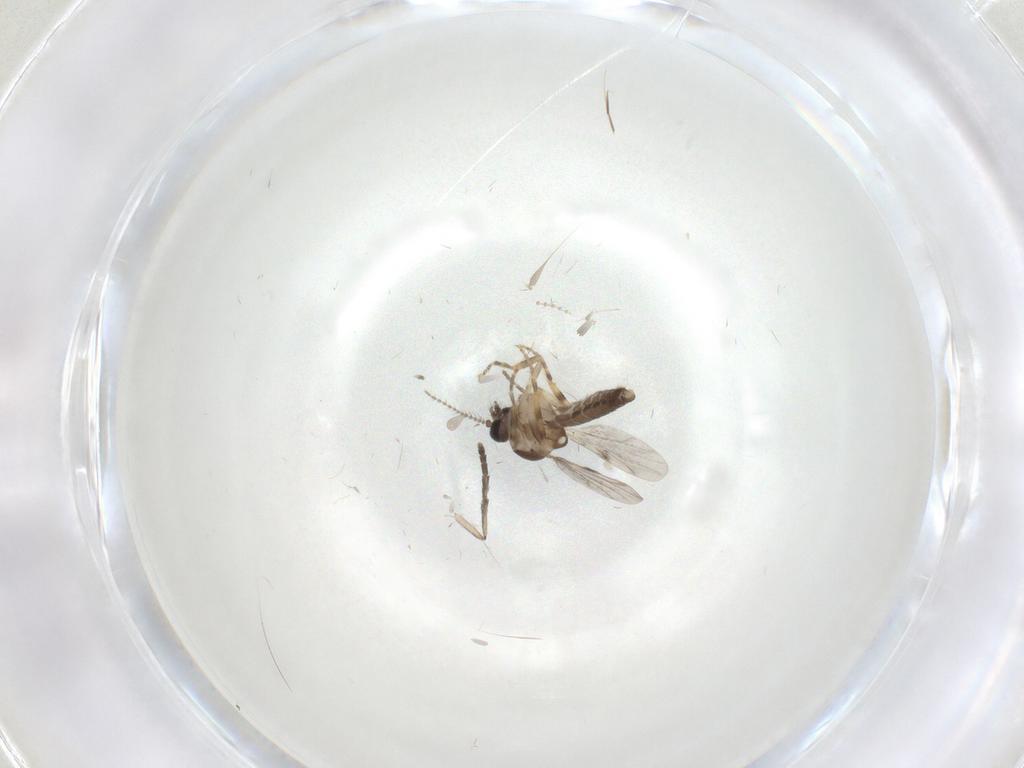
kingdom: Animalia
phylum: Arthropoda
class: Insecta
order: Diptera
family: Ceratopogonidae
